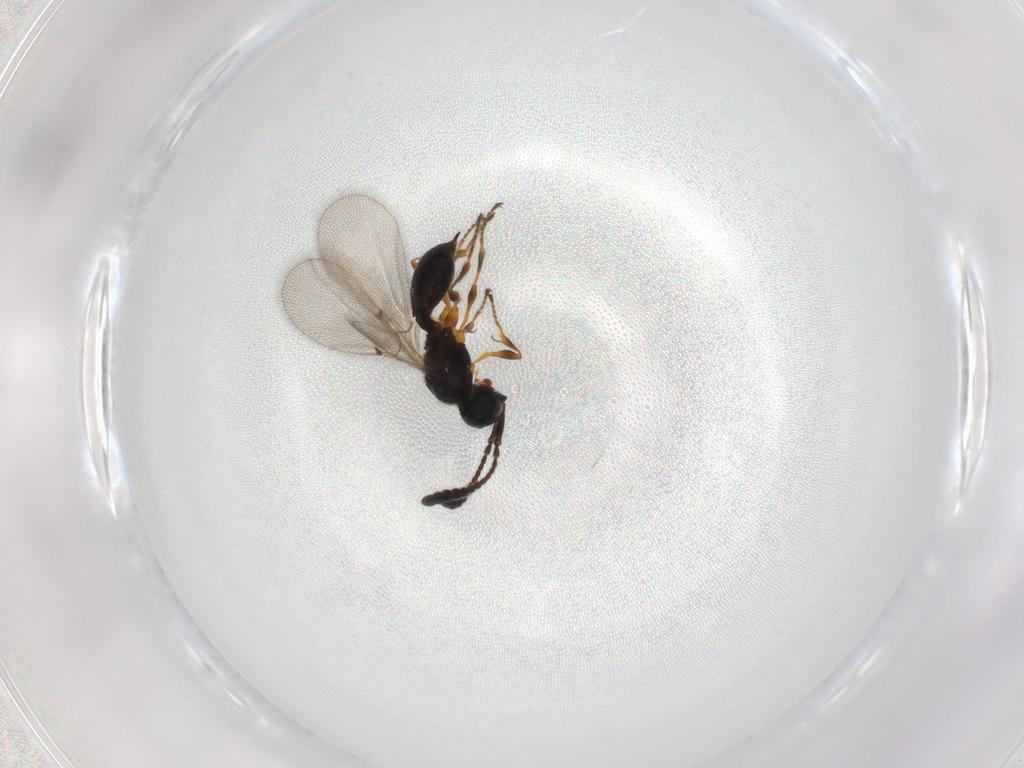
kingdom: Animalia
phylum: Arthropoda
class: Insecta
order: Hymenoptera
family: Diapriidae
